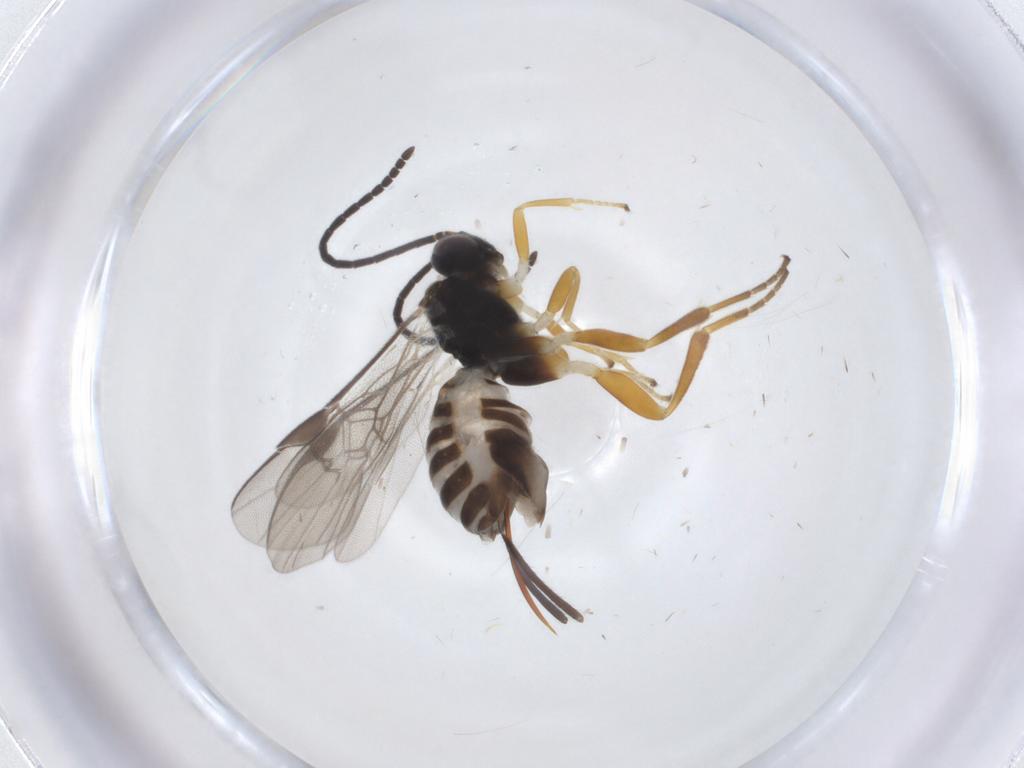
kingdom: Animalia
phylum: Arthropoda
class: Insecta
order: Hymenoptera
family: Braconidae
